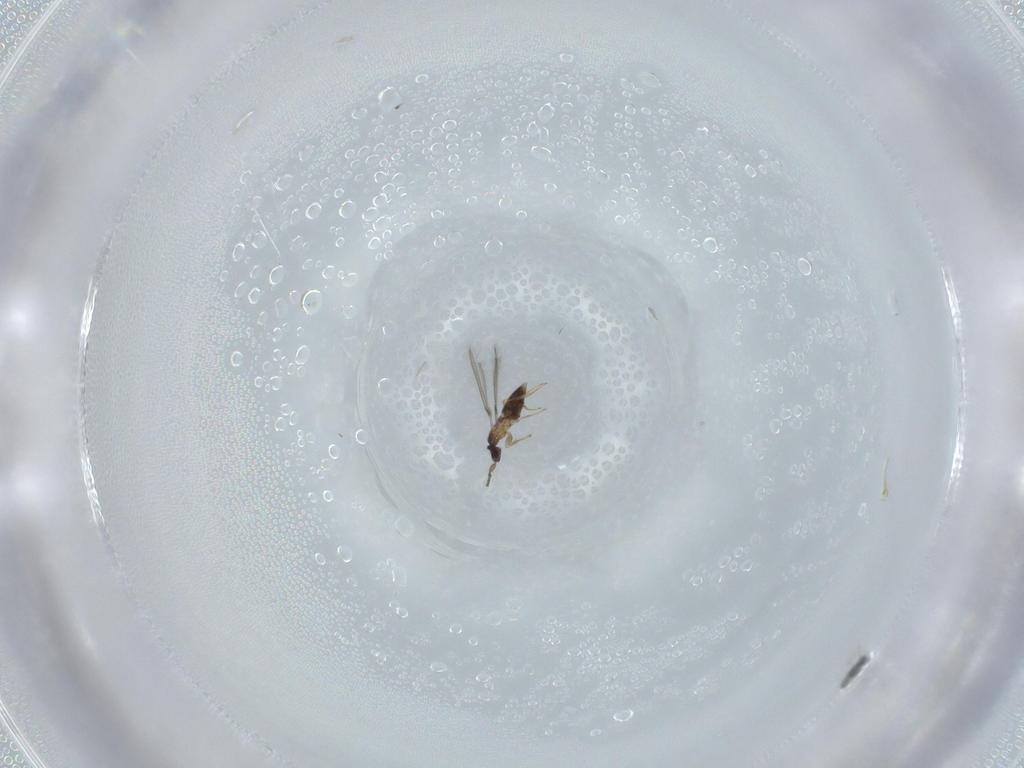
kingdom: Animalia
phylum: Arthropoda
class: Insecta
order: Hymenoptera
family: Mymaridae
